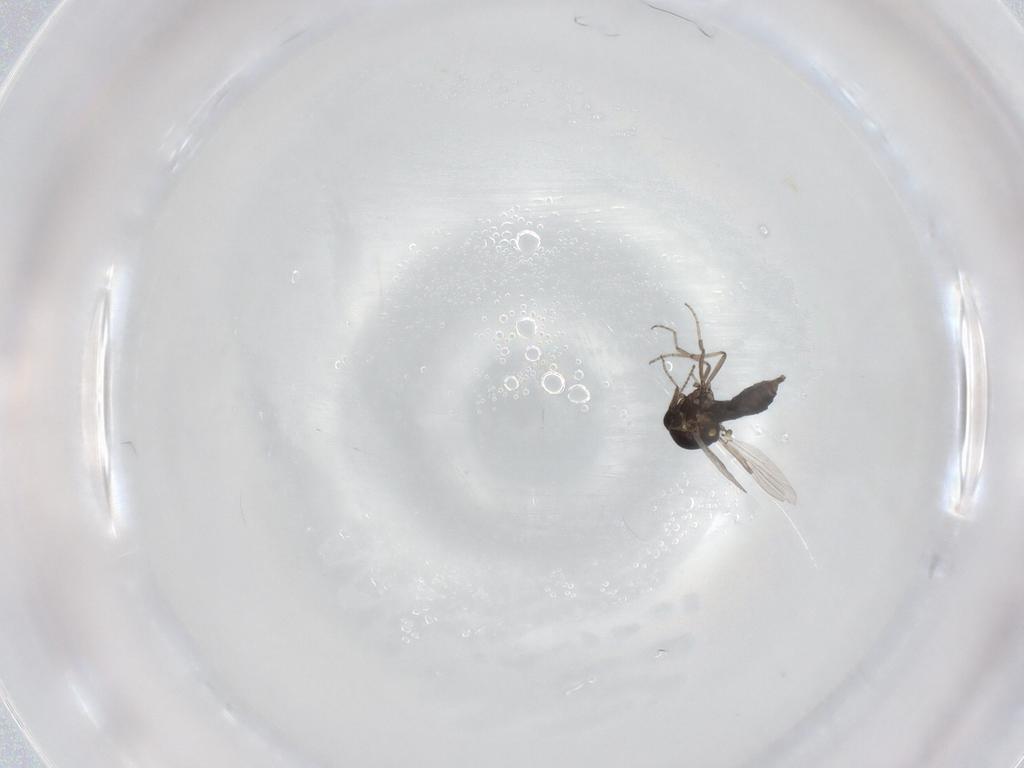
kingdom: Animalia
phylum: Arthropoda
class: Insecta
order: Diptera
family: Ceratopogonidae
